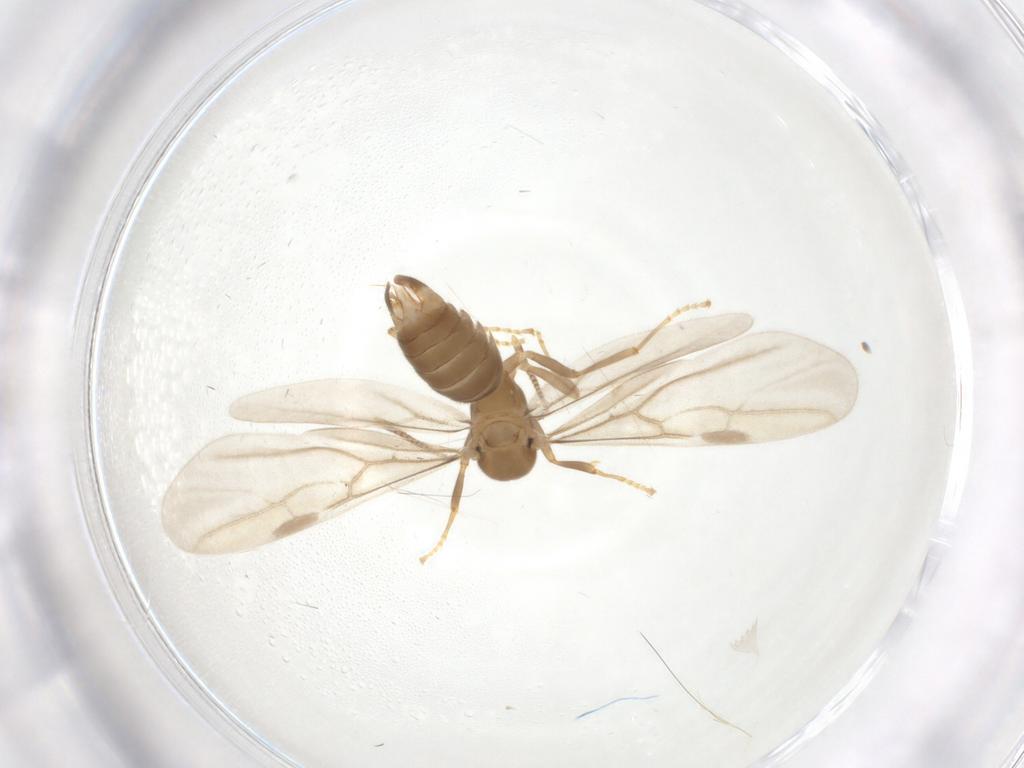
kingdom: Animalia
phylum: Arthropoda
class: Insecta
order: Hymenoptera
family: Formicidae
